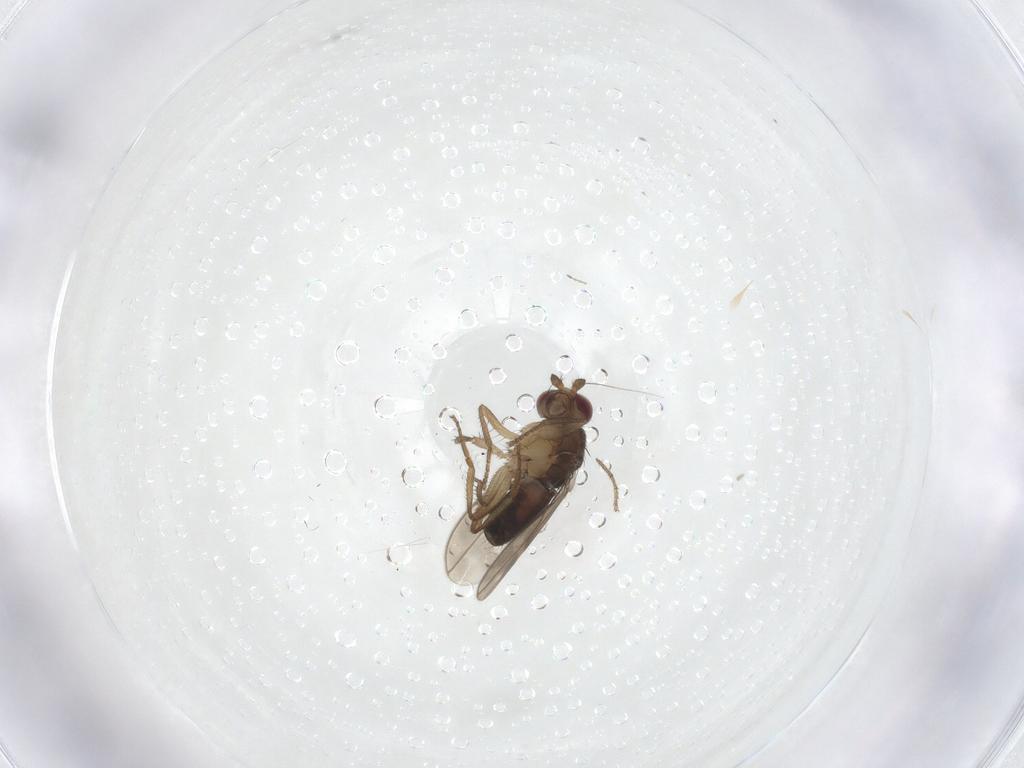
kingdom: Animalia
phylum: Arthropoda
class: Insecta
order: Diptera
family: Sphaeroceridae
